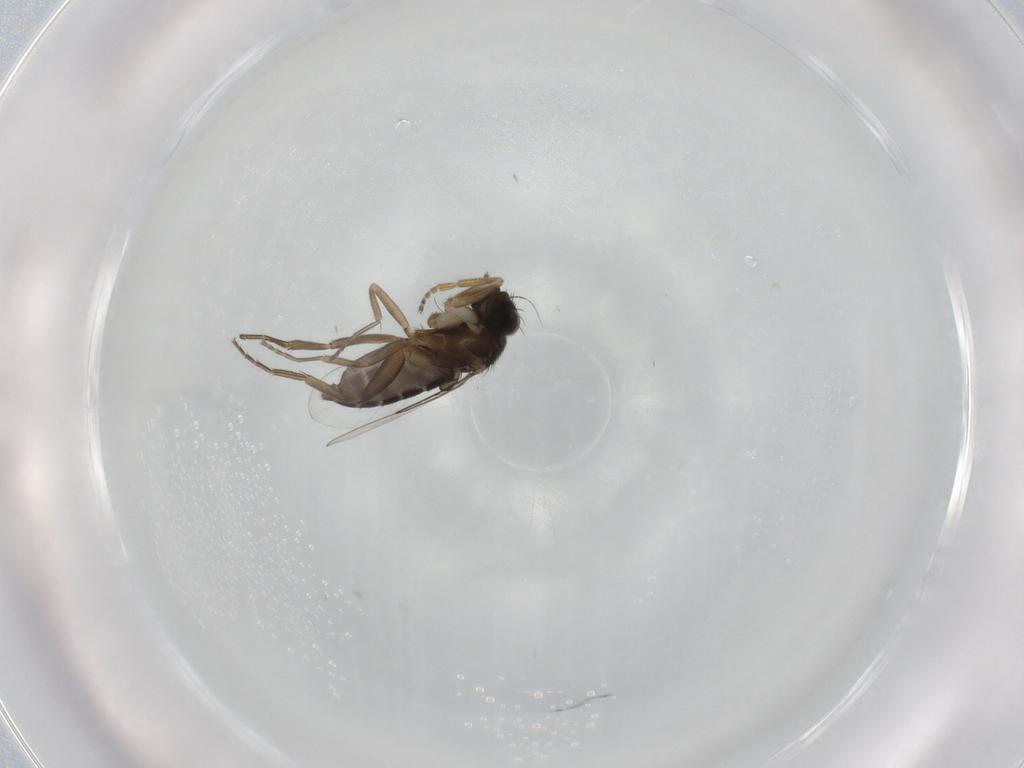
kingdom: Animalia
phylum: Arthropoda
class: Insecta
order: Diptera
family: Phoridae
